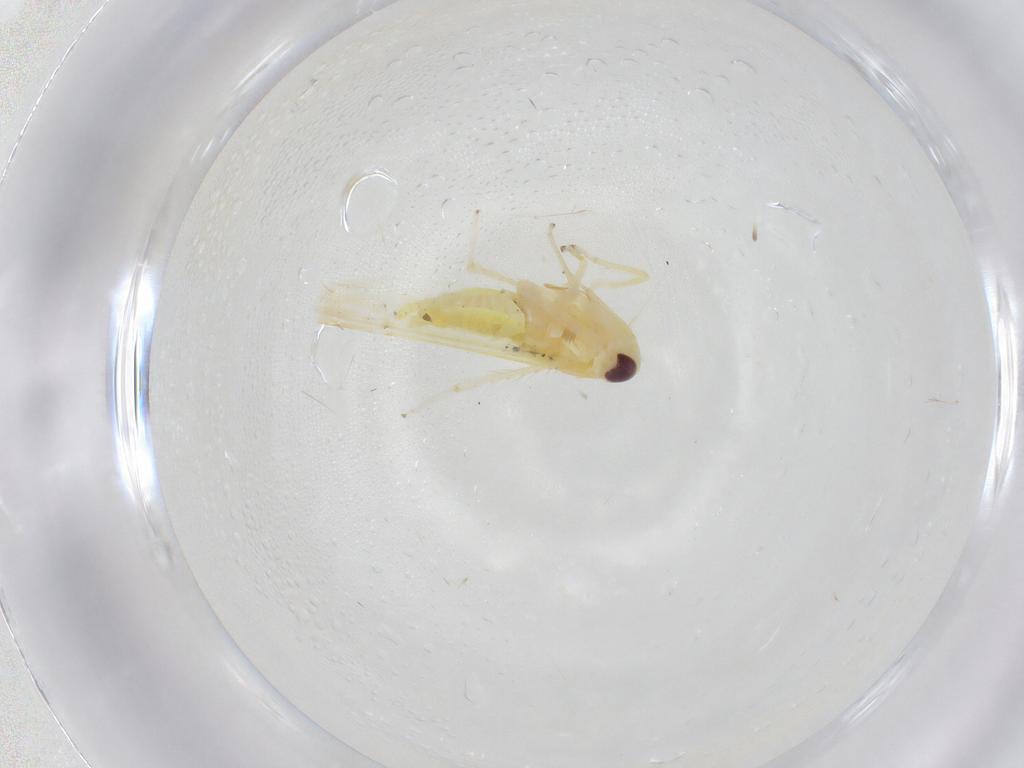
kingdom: Animalia
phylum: Arthropoda
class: Insecta
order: Hemiptera
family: Cicadellidae
